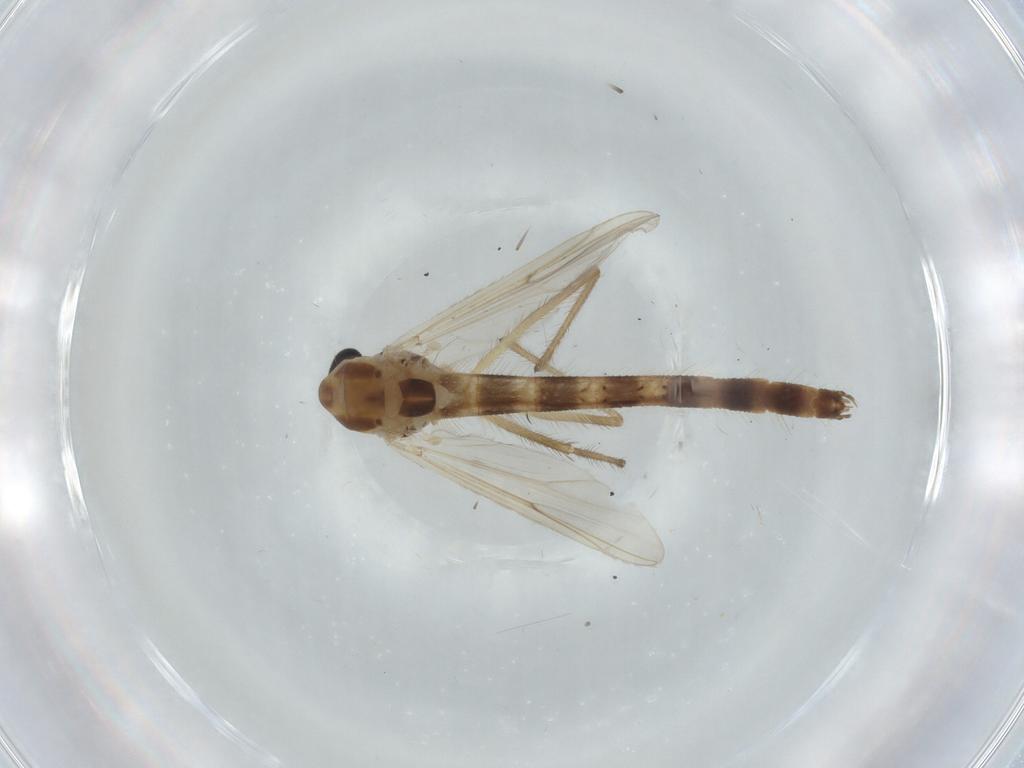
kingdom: Animalia
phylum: Arthropoda
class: Insecta
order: Diptera
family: Chironomidae
